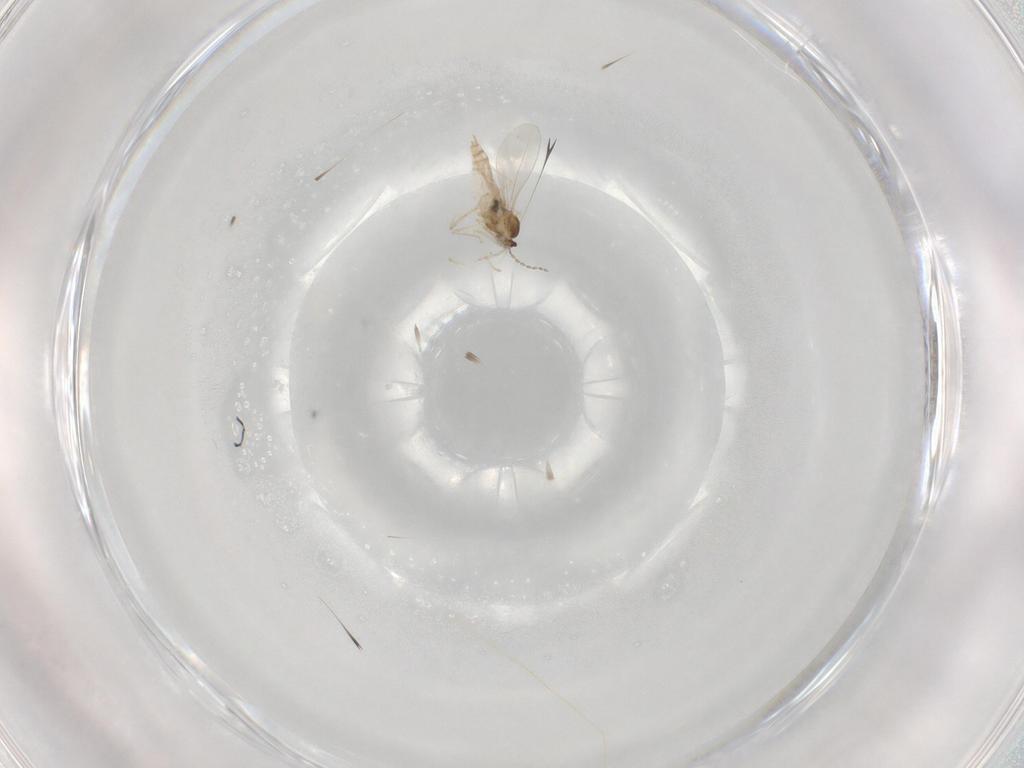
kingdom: Animalia
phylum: Arthropoda
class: Insecta
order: Diptera
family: Cecidomyiidae
